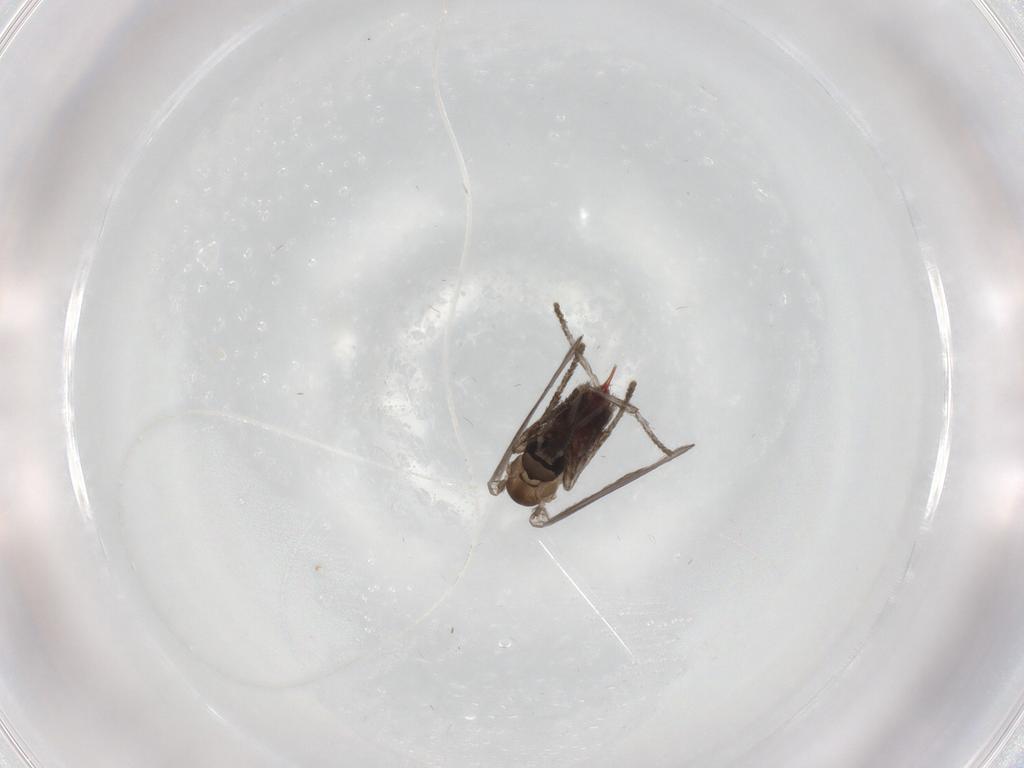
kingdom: Animalia
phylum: Arthropoda
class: Insecta
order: Diptera
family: Psychodidae
